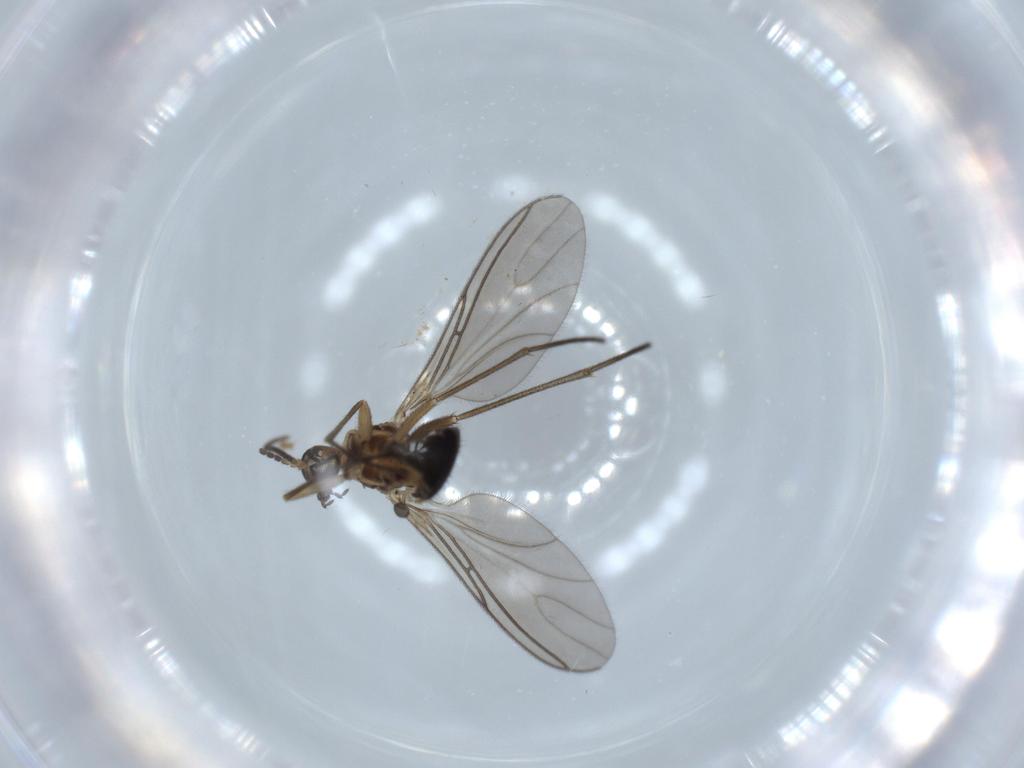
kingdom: Animalia
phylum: Arthropoda
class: Insecta
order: Diptera
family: Sciaridae
